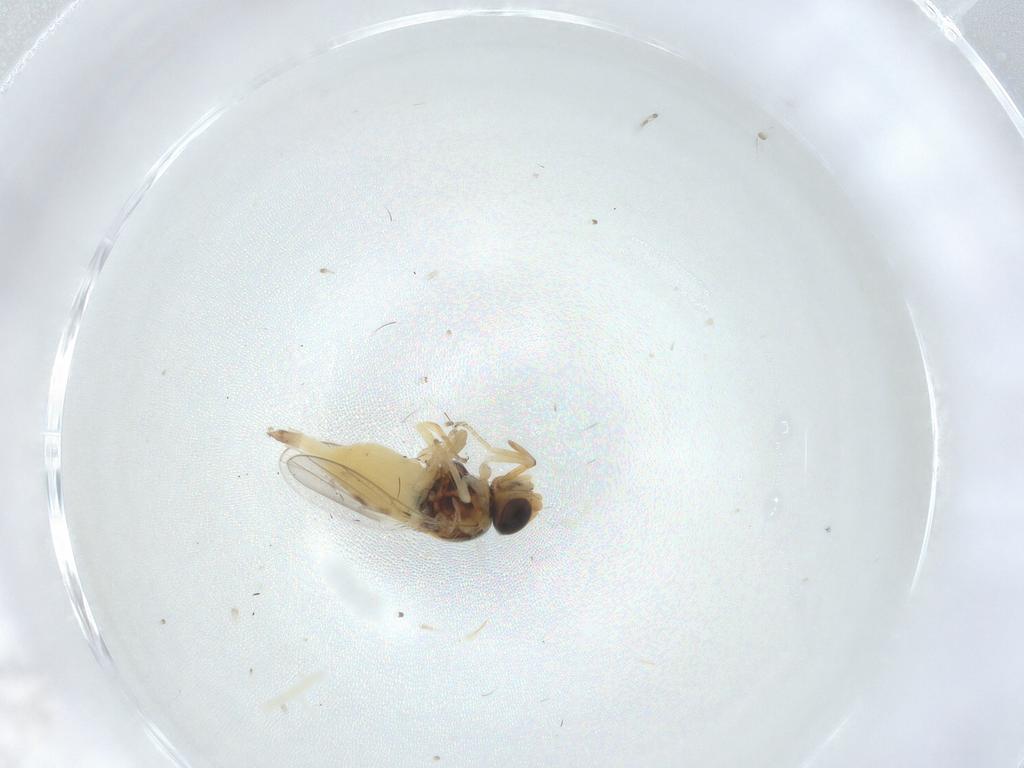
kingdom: Animalia
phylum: Arthropoda
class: Insecta
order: Diptera
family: Chloropidae
